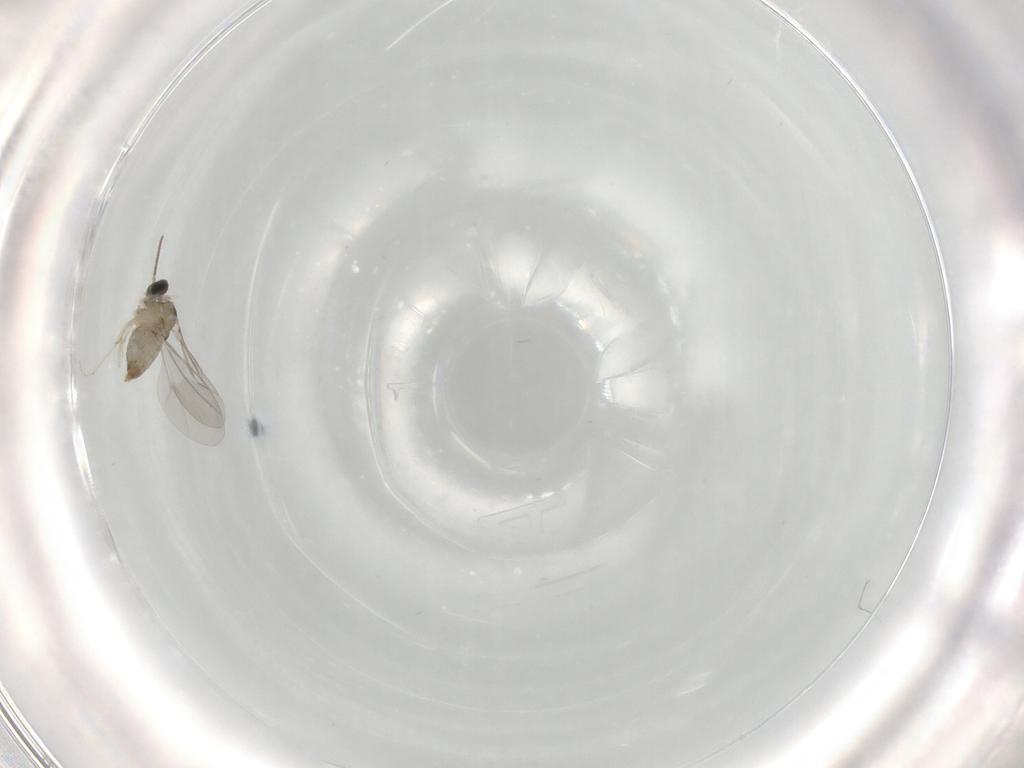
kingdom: Animalia
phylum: Arthropoda
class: Insecta
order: Diptera
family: Cecidomyiidae
